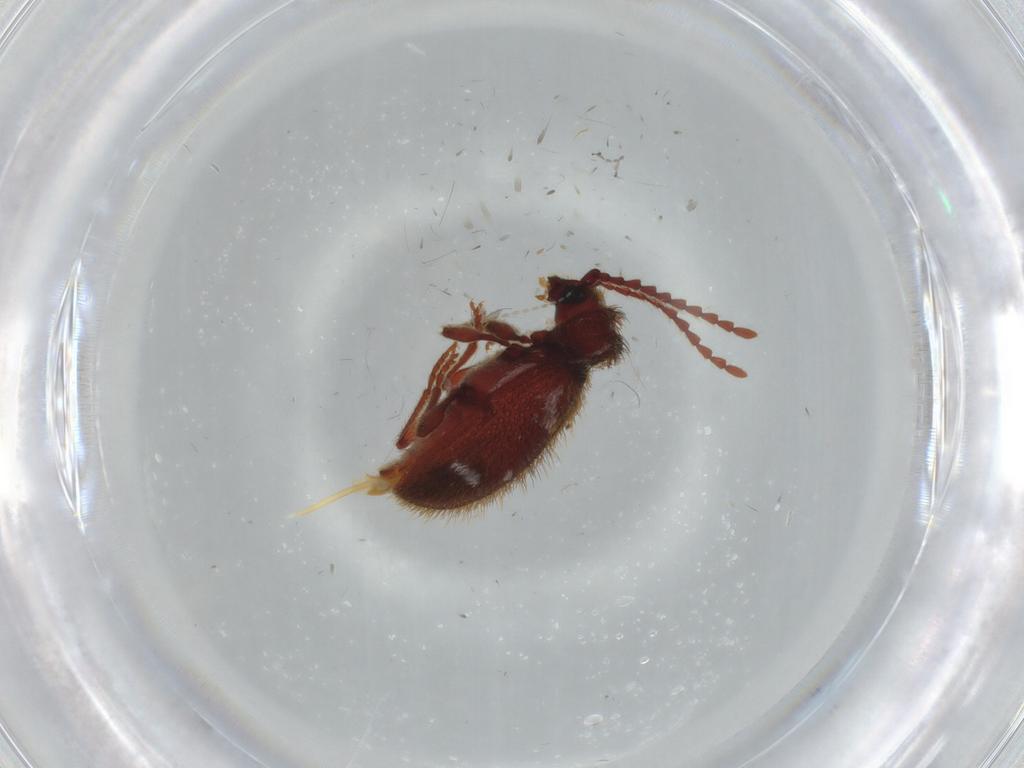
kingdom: Animalia
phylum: Arthropoda
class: Insecta
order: Coleoptera
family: Ptinidae
